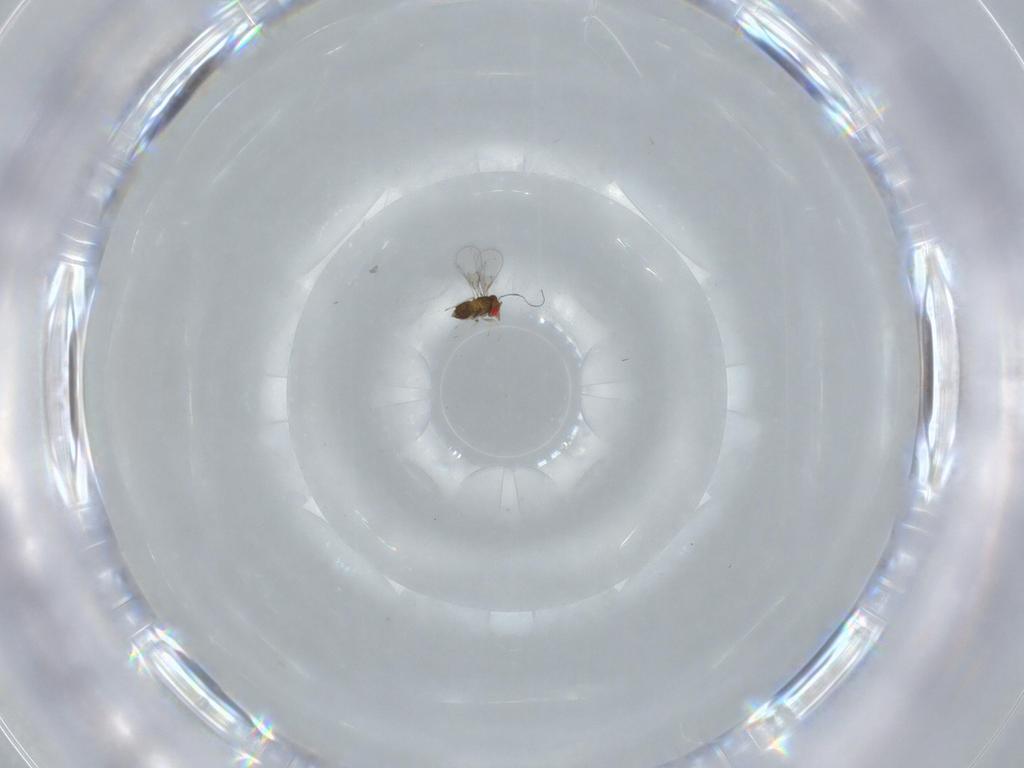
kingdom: Animalia
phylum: Arthropoda
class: Insecta
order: Hymenoptera
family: Trichogrammatidae
